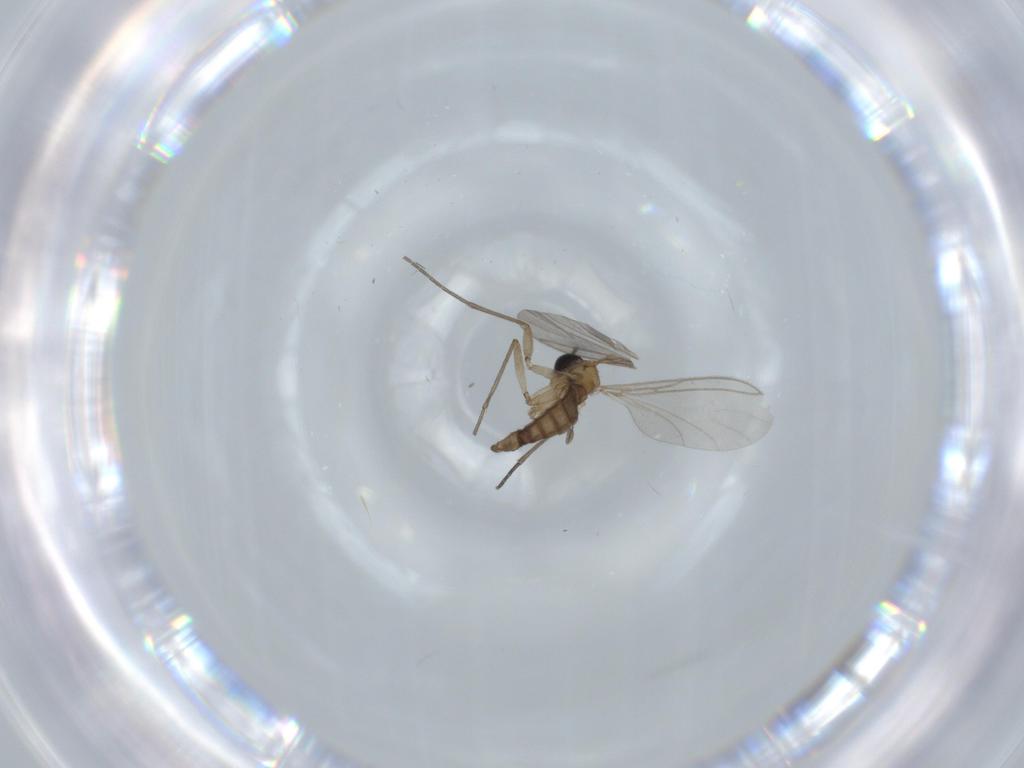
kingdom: Animalia
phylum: Arthropoda
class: Insecta
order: Diptera
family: Sciaridae
